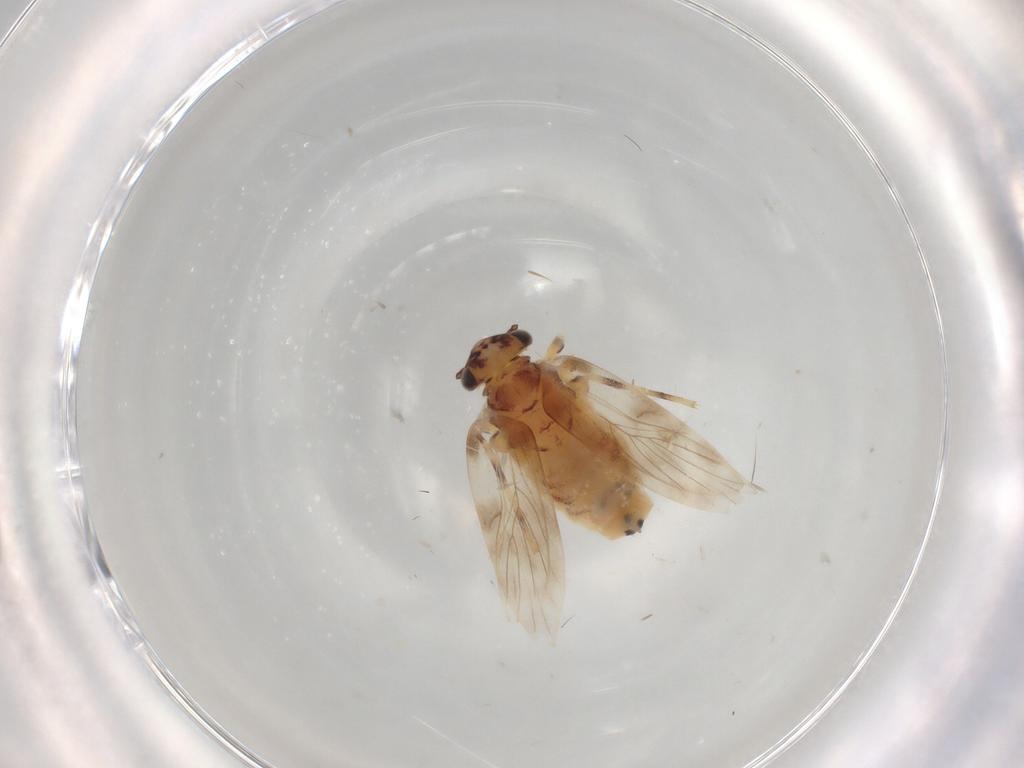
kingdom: Animalia
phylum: Arthropoda
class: Insecta
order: Psocodea
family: Lepidopsocidae
